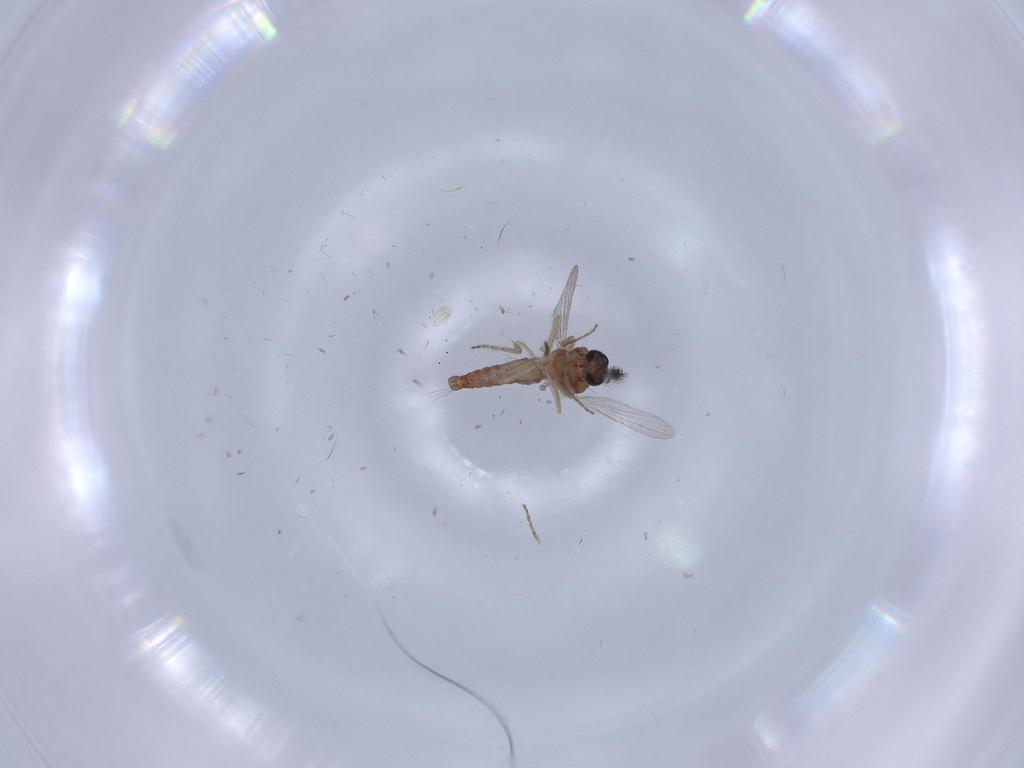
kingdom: Animalia
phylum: Arthropoda
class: Insecta
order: Diptera
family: Ceratopogonidae
